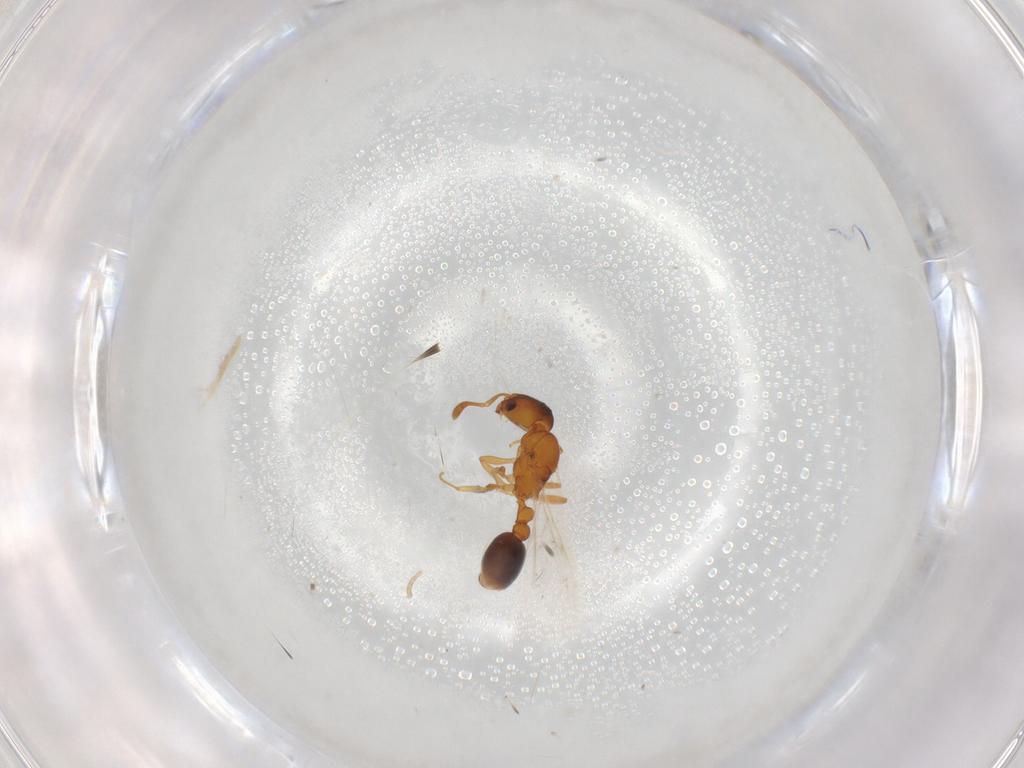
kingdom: Animalia
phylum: Arthropoda
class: Insecta
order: Hymenoptera
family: Formicidae
